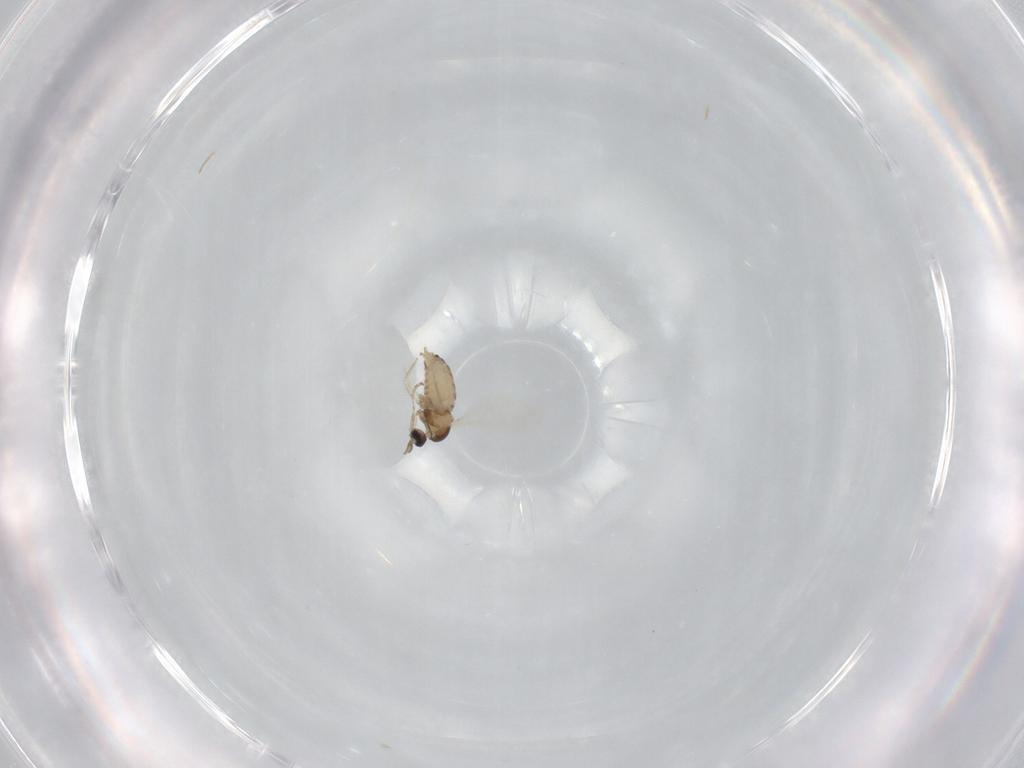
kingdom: Animalia
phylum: Arthropoda
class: Insecta
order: Diptera
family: Cecidomyiidae
